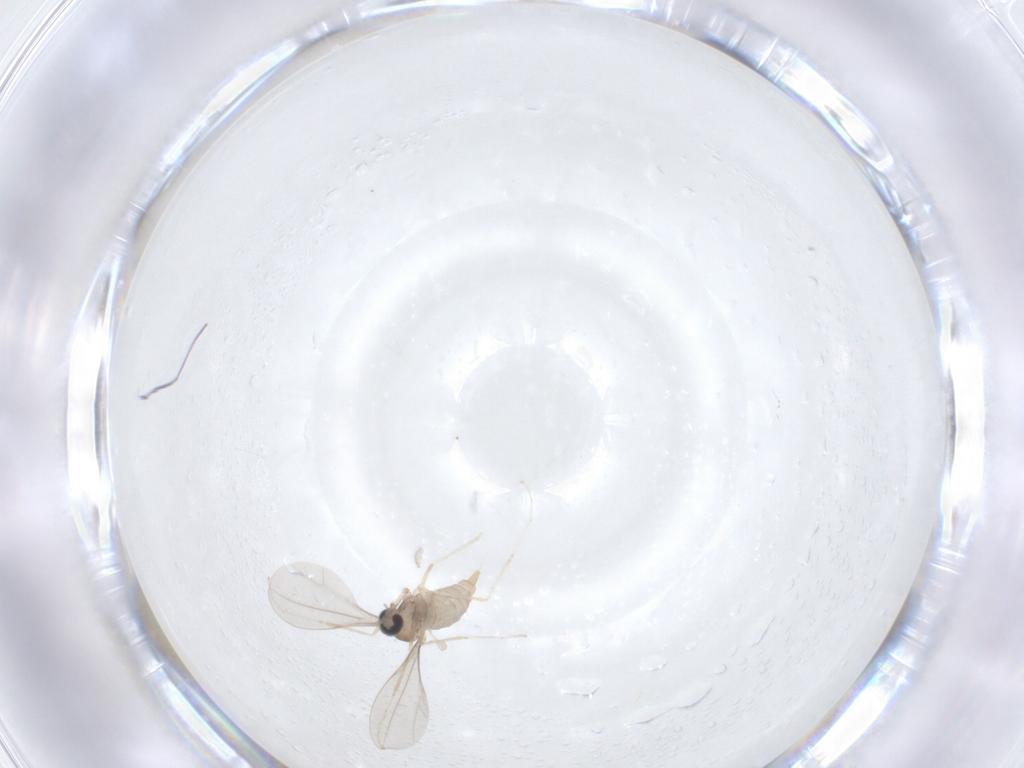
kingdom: Animalia
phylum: Arthropoda
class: Insecta
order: Diptera
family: Cecidomyiidae
